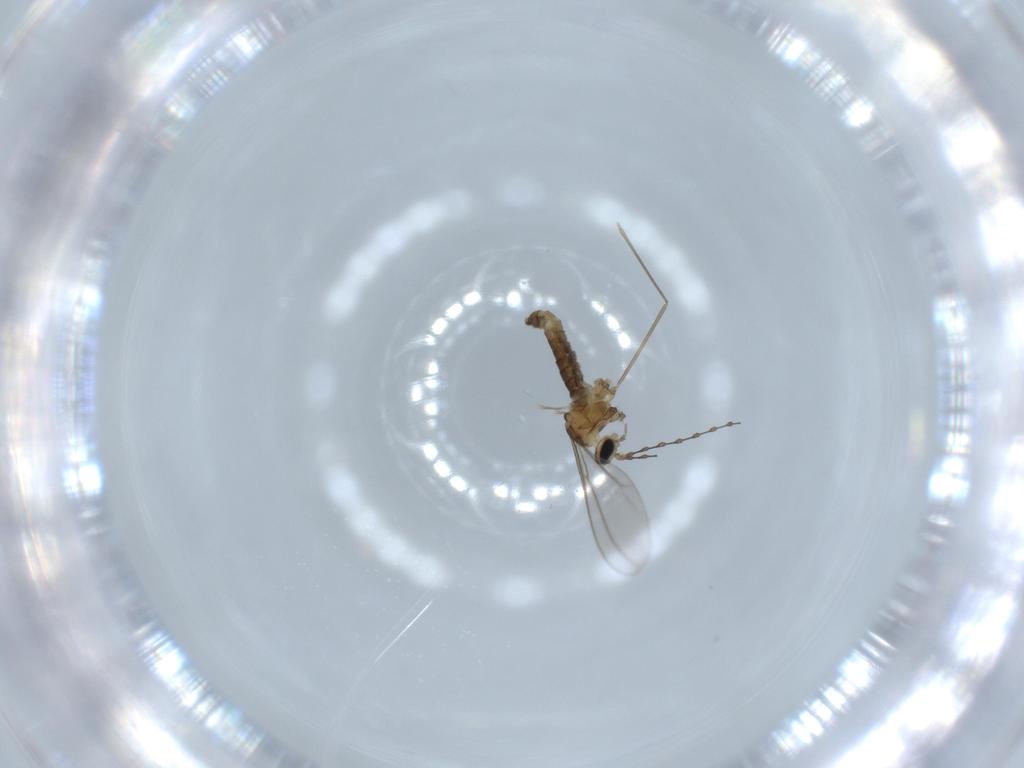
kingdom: Animalia
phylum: Arthropoda
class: Insecta
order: Diptera
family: Cecidomyiidae
